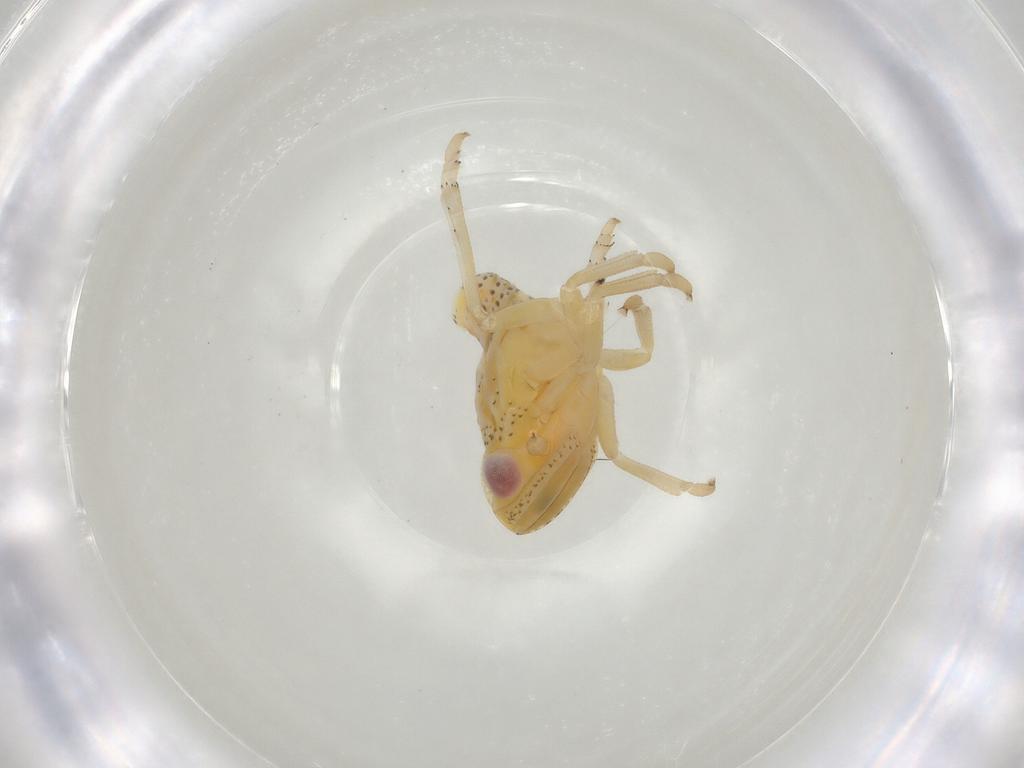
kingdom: Animalia
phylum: Arthropoda
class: Insecta
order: Hemiptera
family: Tropiduchidae
